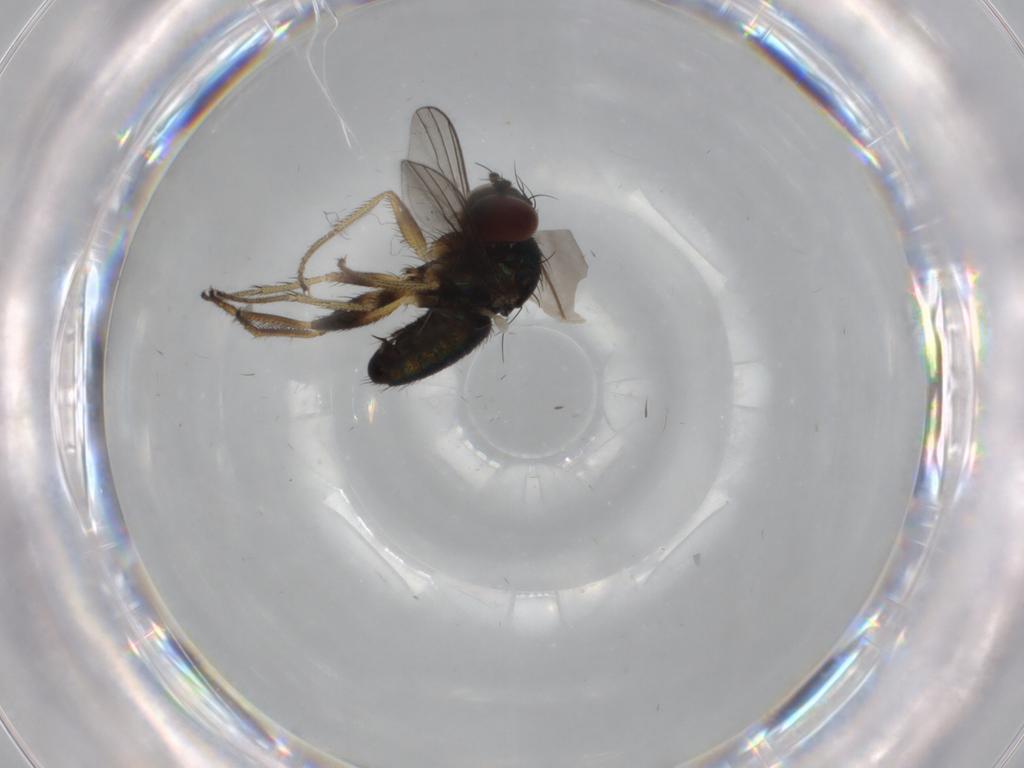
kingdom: Animalia
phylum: Arthropoda
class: Insecta
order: Diptera
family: Dolichopodidae
